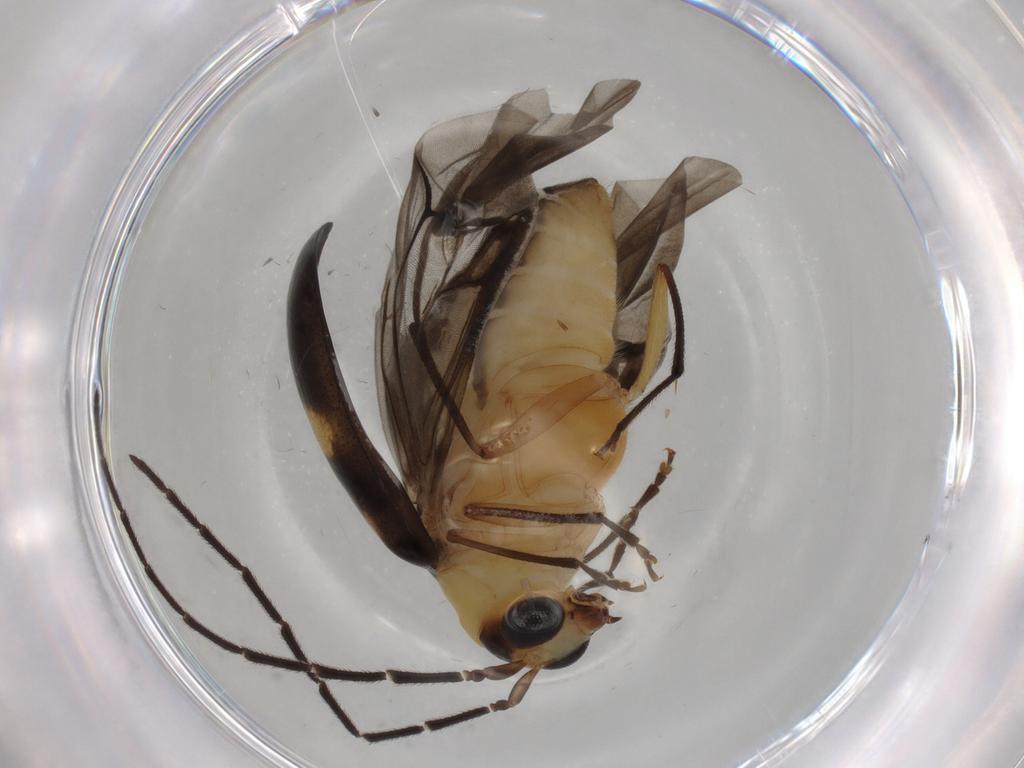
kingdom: Animalia
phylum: Arthropoda
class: Insecta
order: Coleoptera
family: Chrysomelidae
